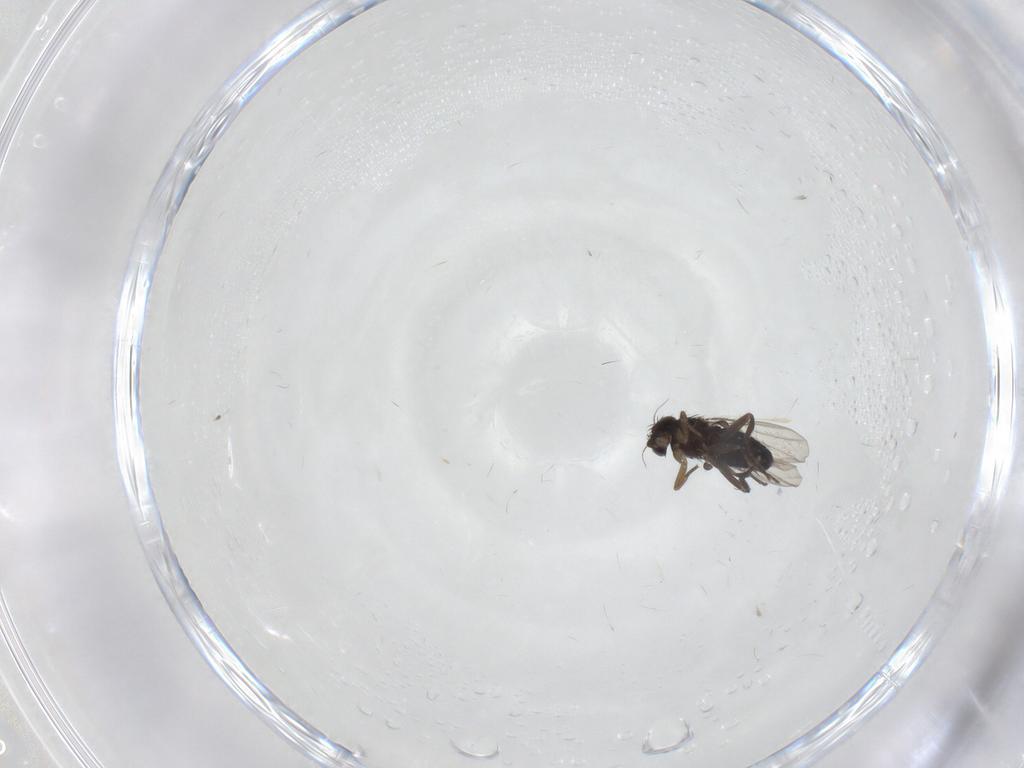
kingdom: Animalia
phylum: Arthropoda
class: Insecta
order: Diptera
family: Phoridae
